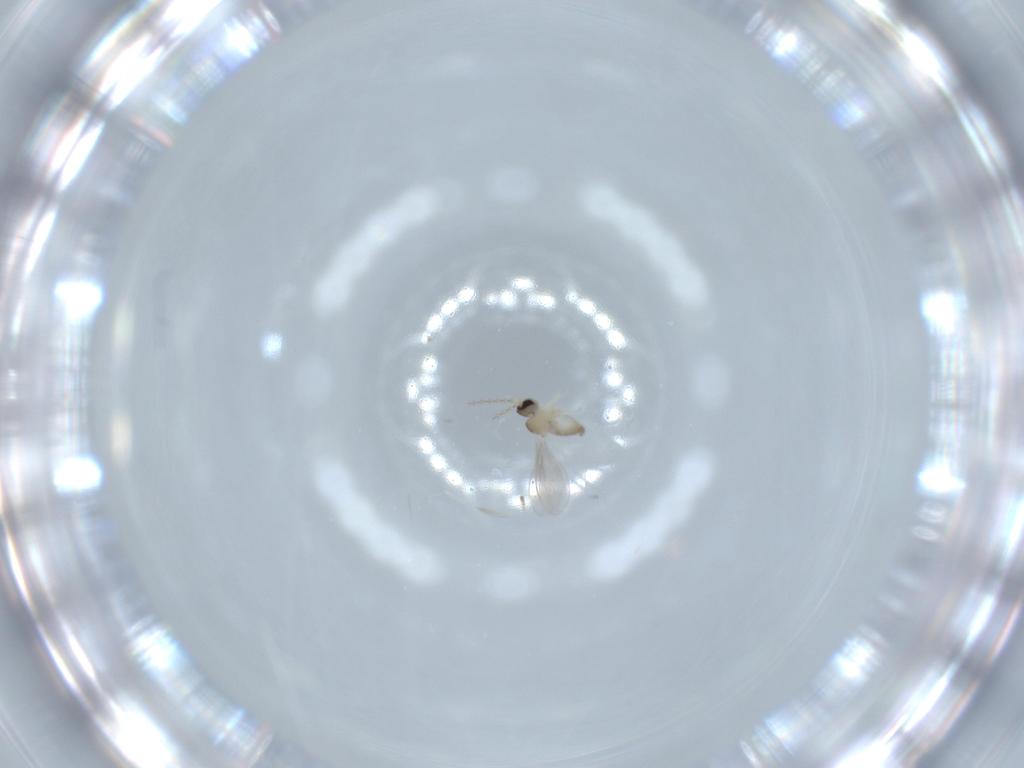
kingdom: Animalia
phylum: Arthropoda
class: Insecta
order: Diptera
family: Cecidomyiidae
